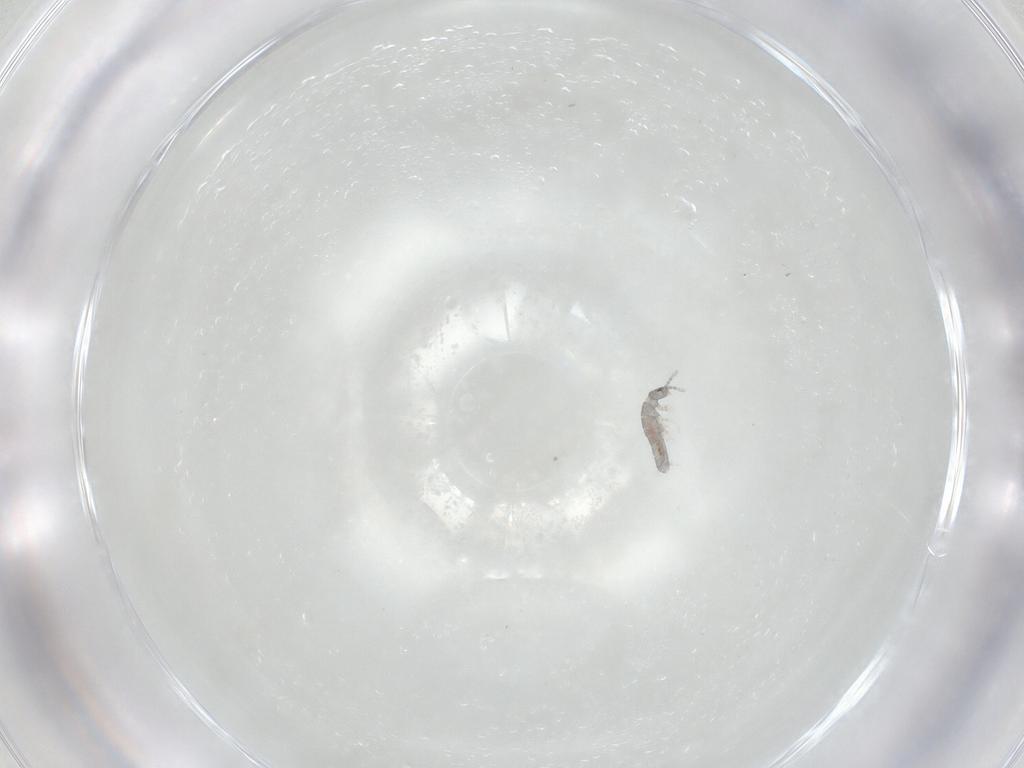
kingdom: Animalia
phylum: Arthropoda
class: Collembola
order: Entomobryomorpha
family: Isotomidae
